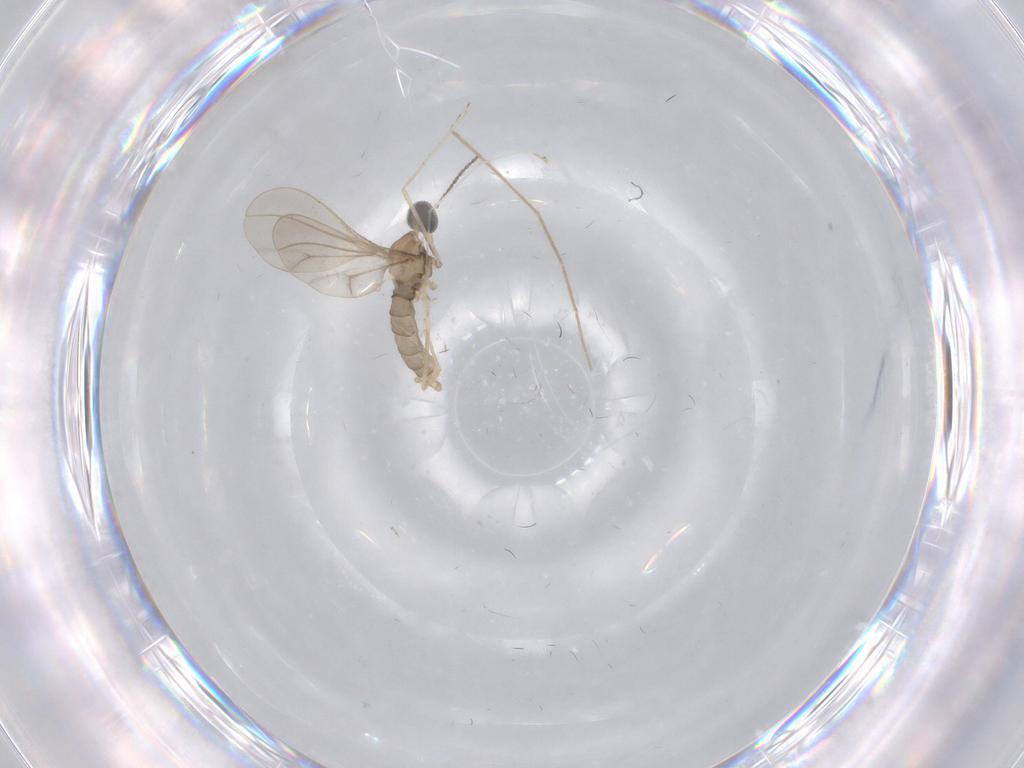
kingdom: Animalia
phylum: Arthropoda
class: Insecta
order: Diptera
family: Cecidomyiidae
